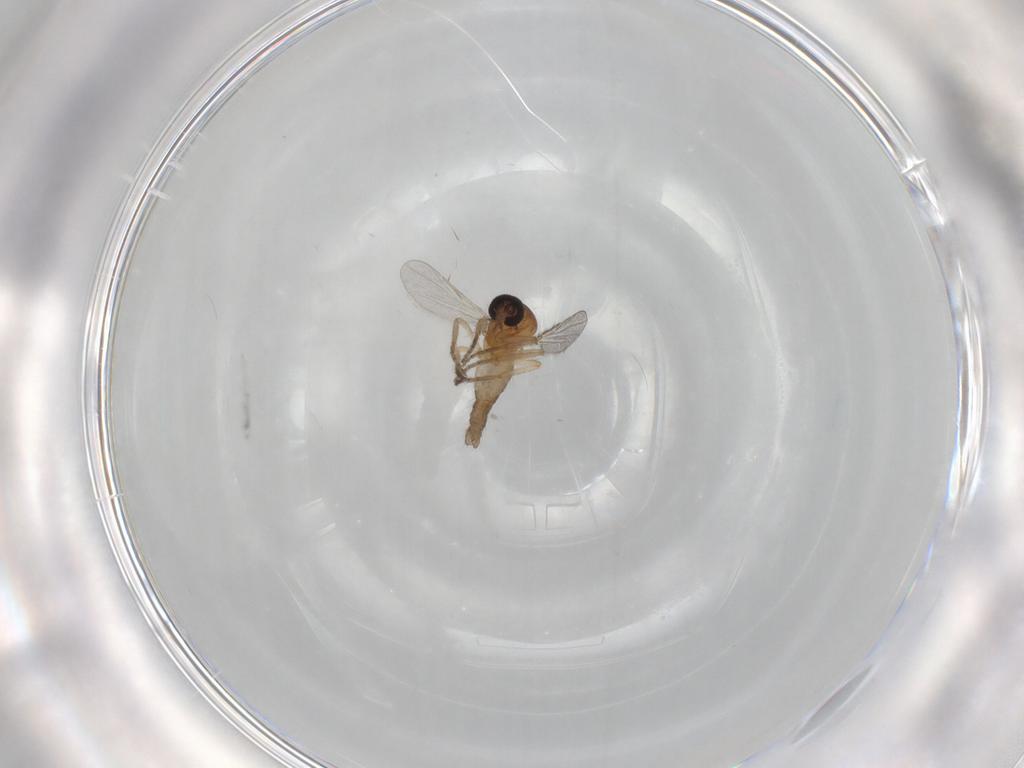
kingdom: Animalia
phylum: Arthropoda
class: Insecta
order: Diptera
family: Ceratopogonidae
